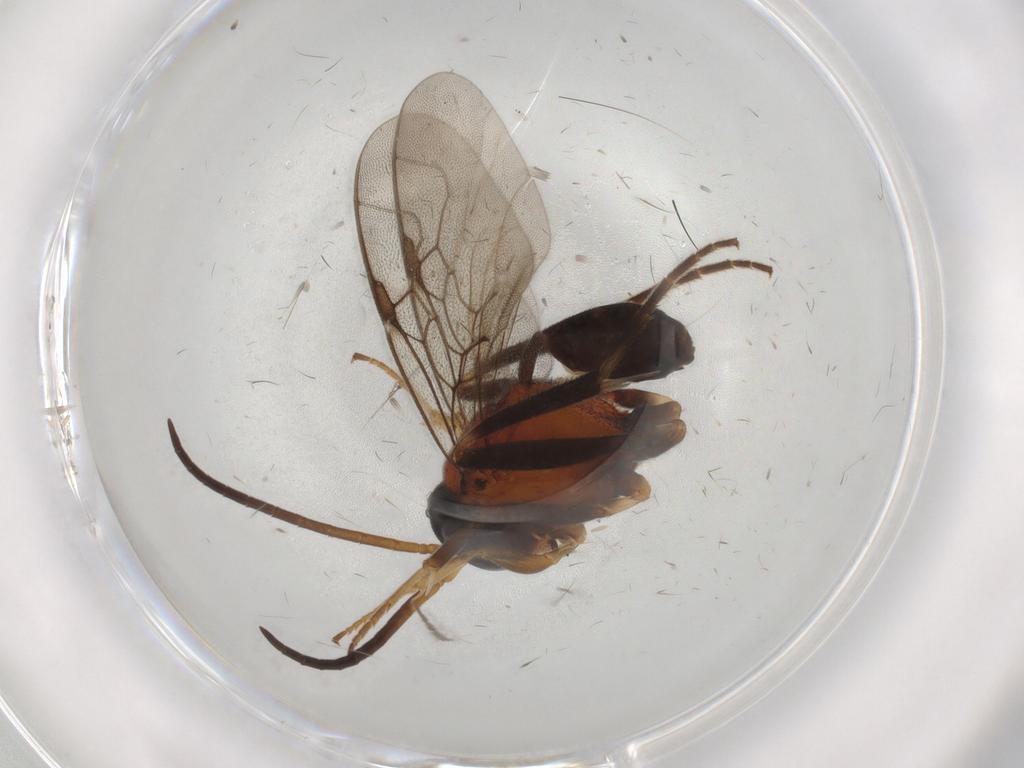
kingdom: Animalia
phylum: Arthropoda
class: Insecta
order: Hymenoptera
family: Evaniidae
